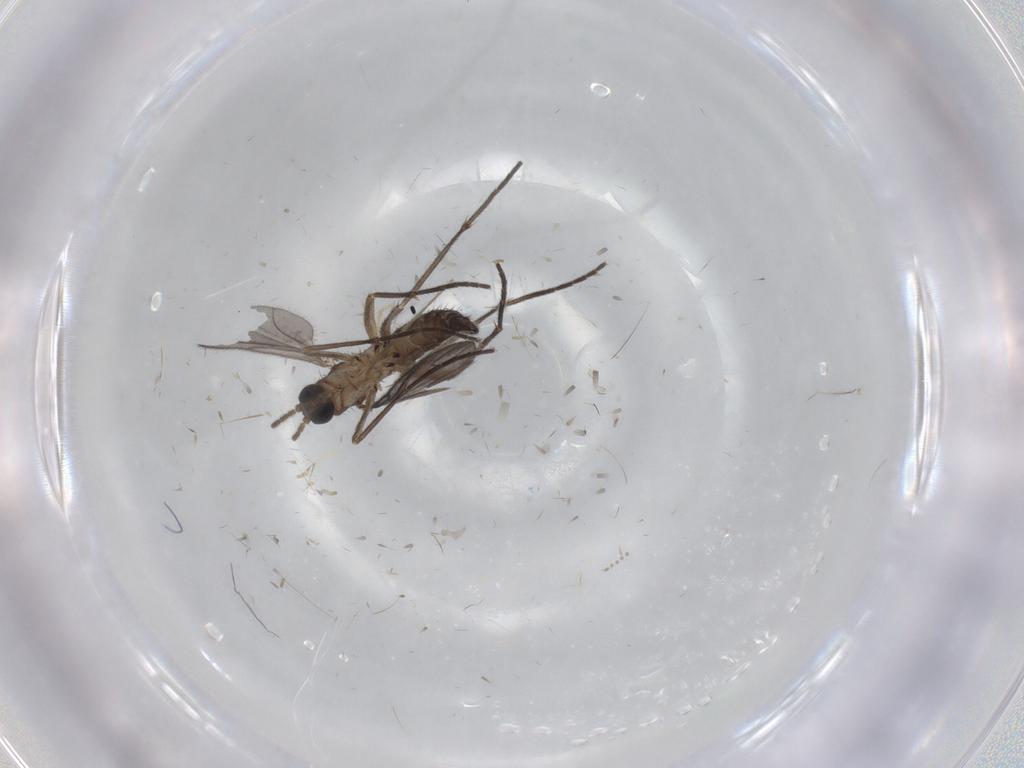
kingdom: Animalia
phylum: Arthropoda
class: Insecta
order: Diptera
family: Sciaridae
